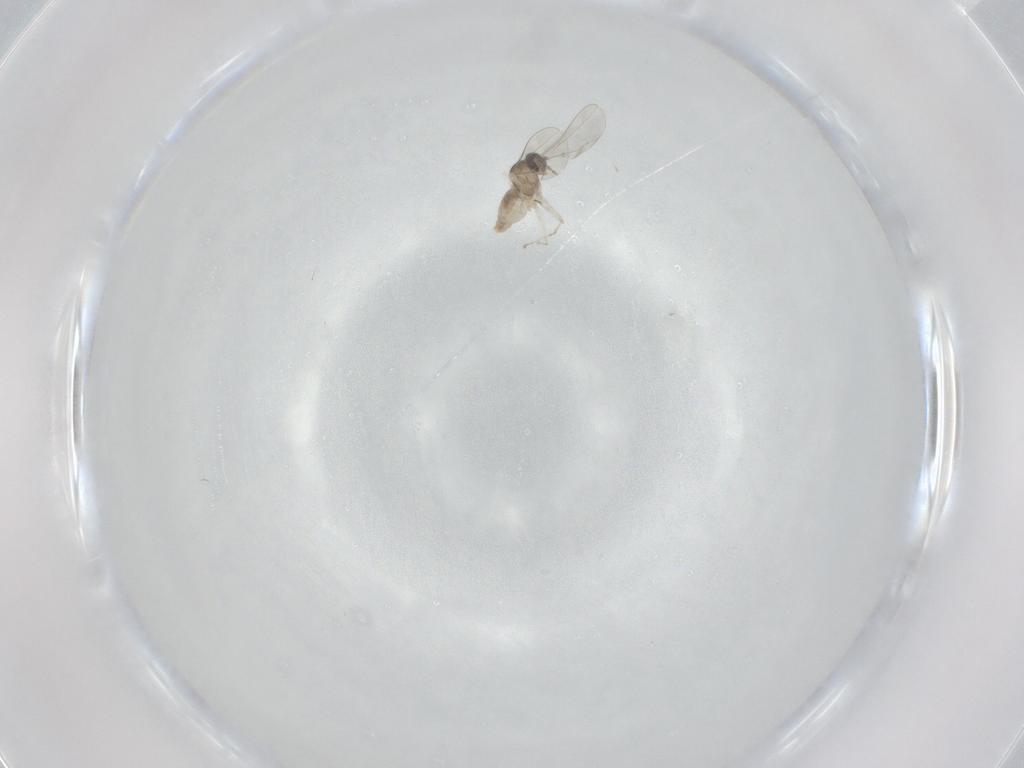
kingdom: Animalia
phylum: Arthropoda
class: Insecta
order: Diptera
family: Cecidomyiidae
